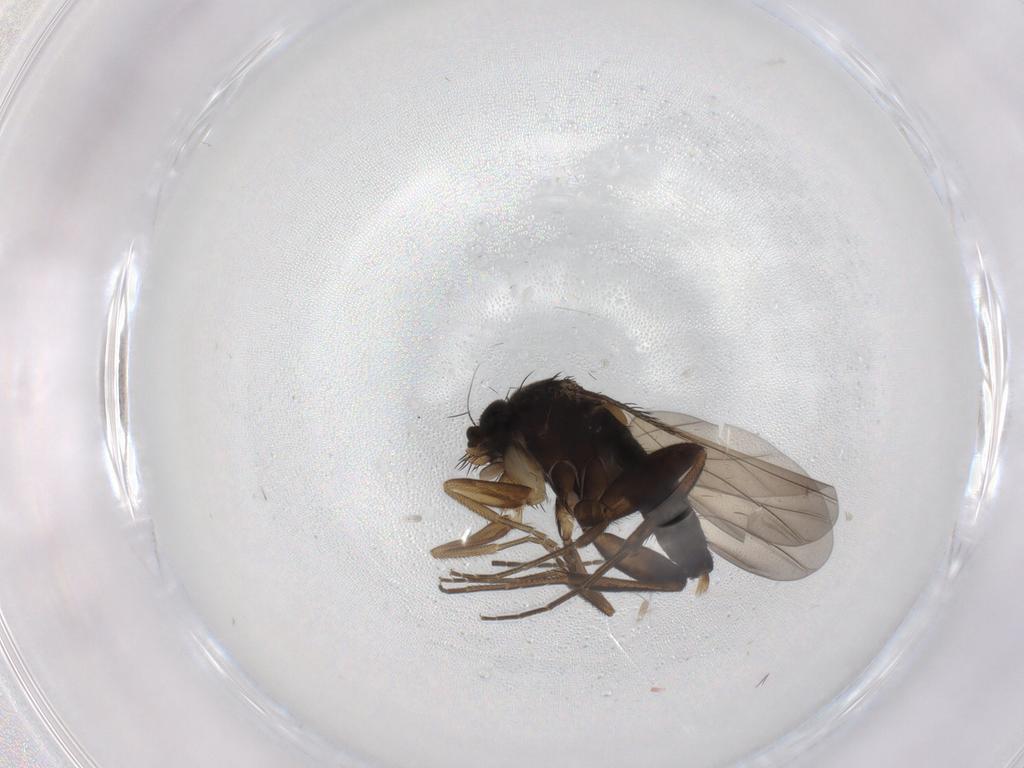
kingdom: Animalia
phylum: Arthropoda
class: Insecta
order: Diptera
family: Phoridae
